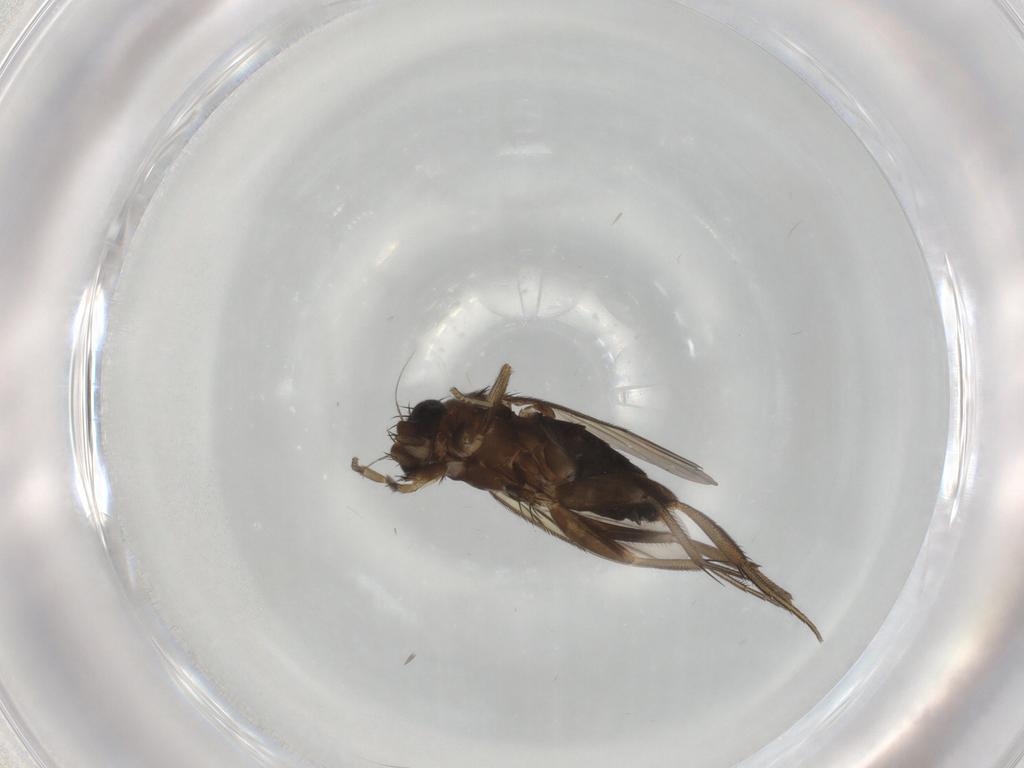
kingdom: Animalia
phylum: Arthropoda
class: Insecta
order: Diptera
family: Phoridae
